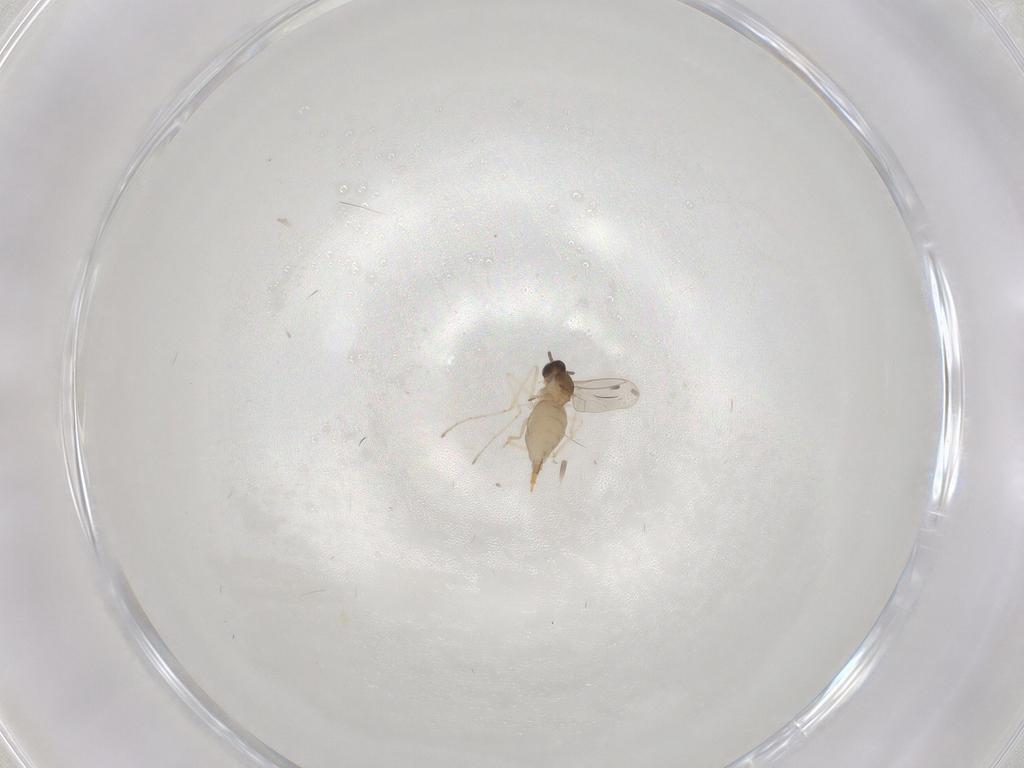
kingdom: Animalia
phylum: Arthropoda
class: Insecta
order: Diptera
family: Cecidomyiidae
